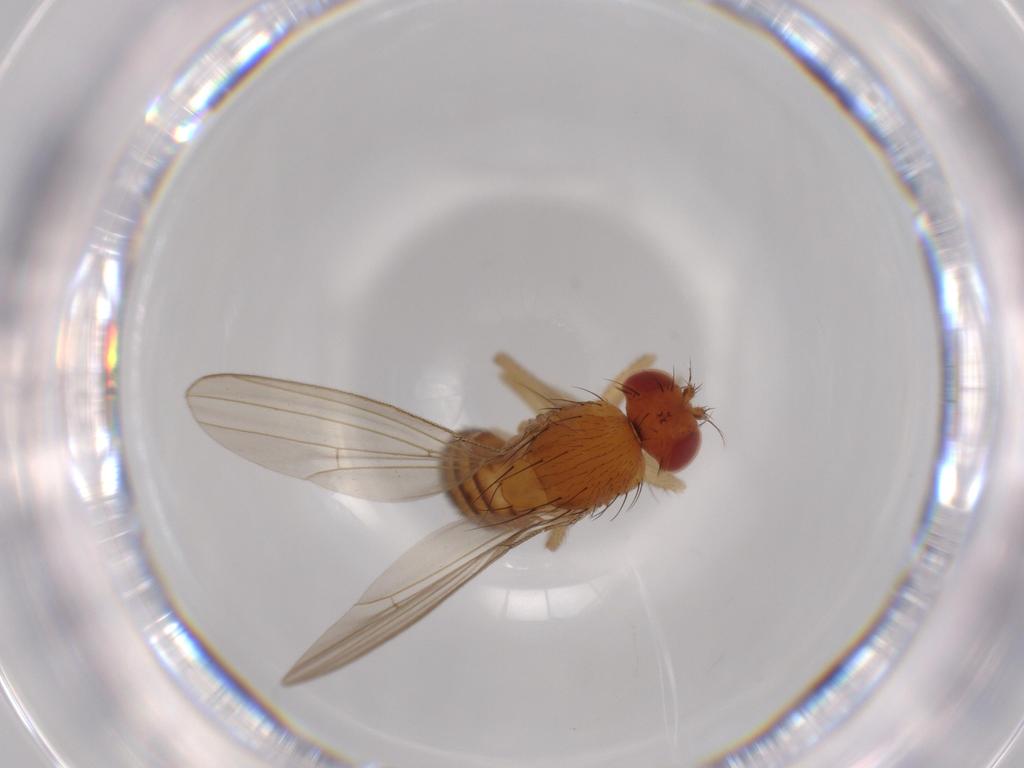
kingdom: Animalia
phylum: Arthropoda
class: Insecta
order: Diptera
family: Drosophilidae
